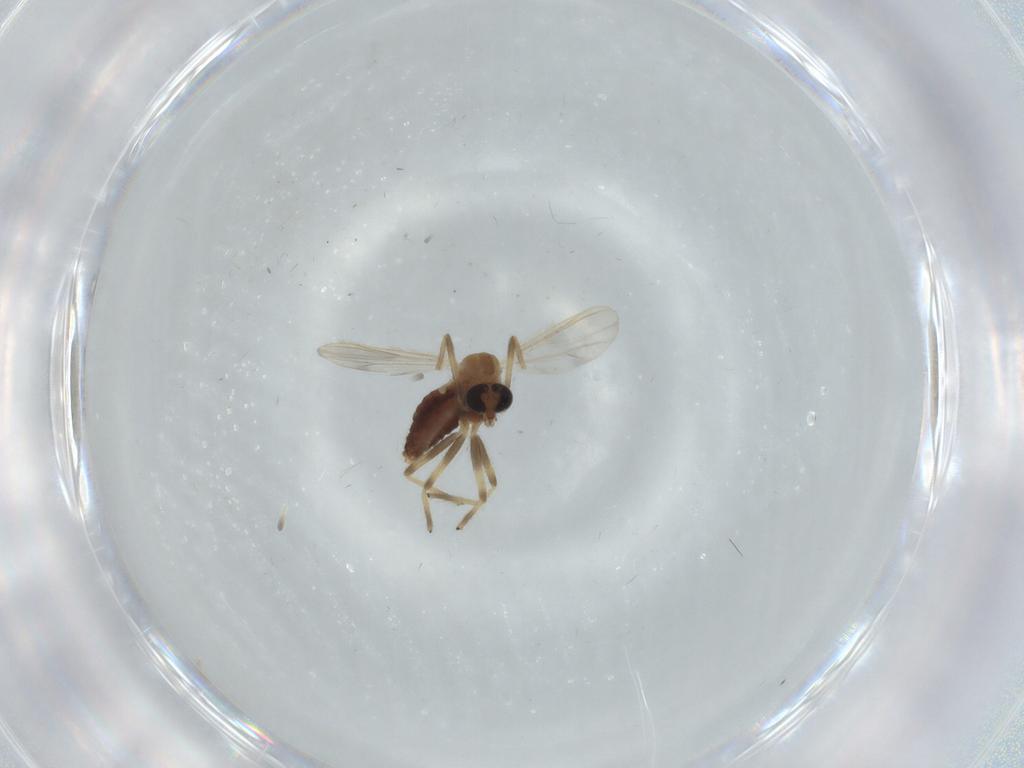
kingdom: Animalia
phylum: Arthropoda
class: Insecta
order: Diptera
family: Chironomidae
